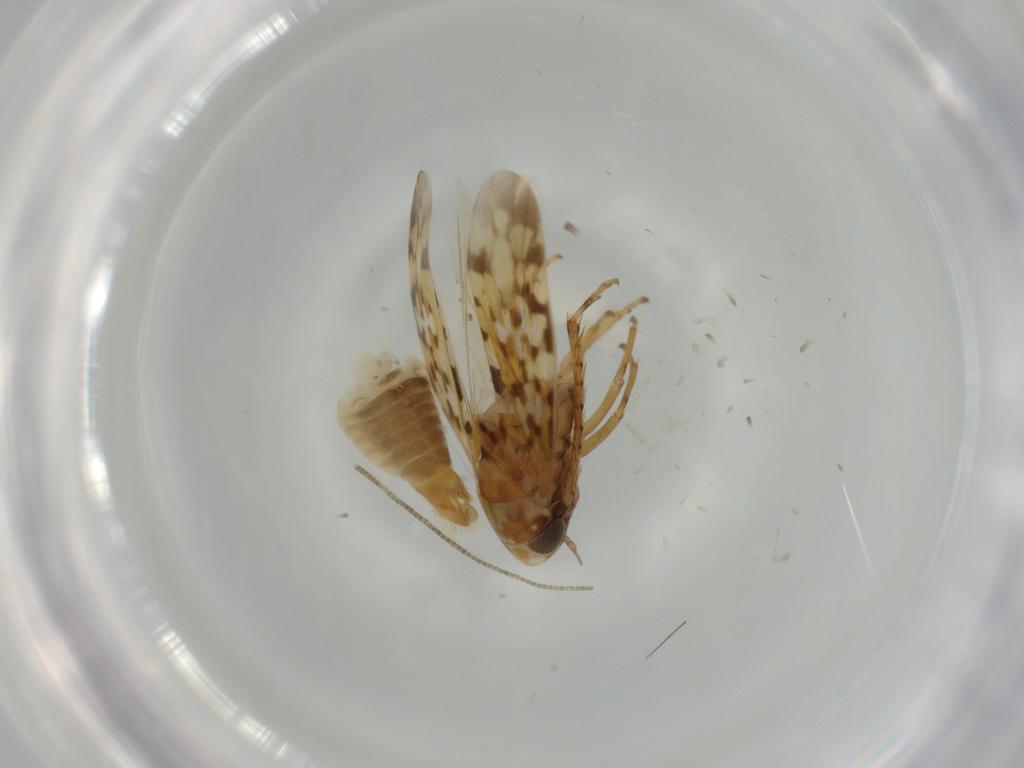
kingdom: Animalia
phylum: Arthropoda
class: Insecta
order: Hemiptera
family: Cicadellidae
